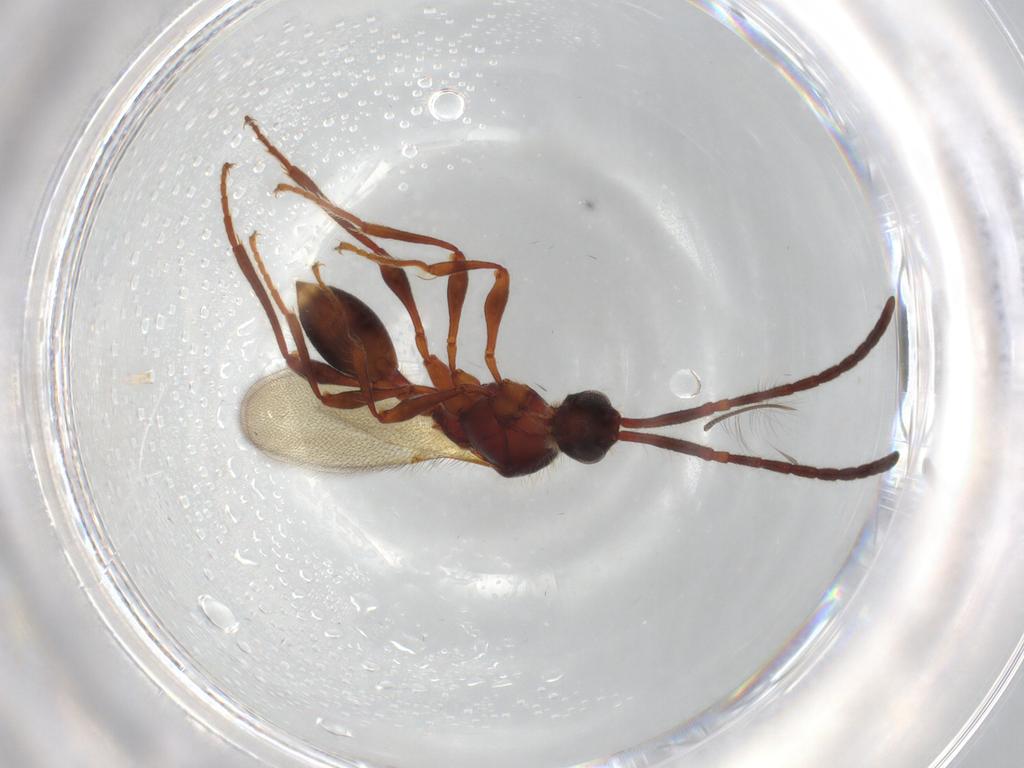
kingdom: Animalia
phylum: Arthropoda
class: Insecta
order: Hymenoptera
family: Diapriidae
